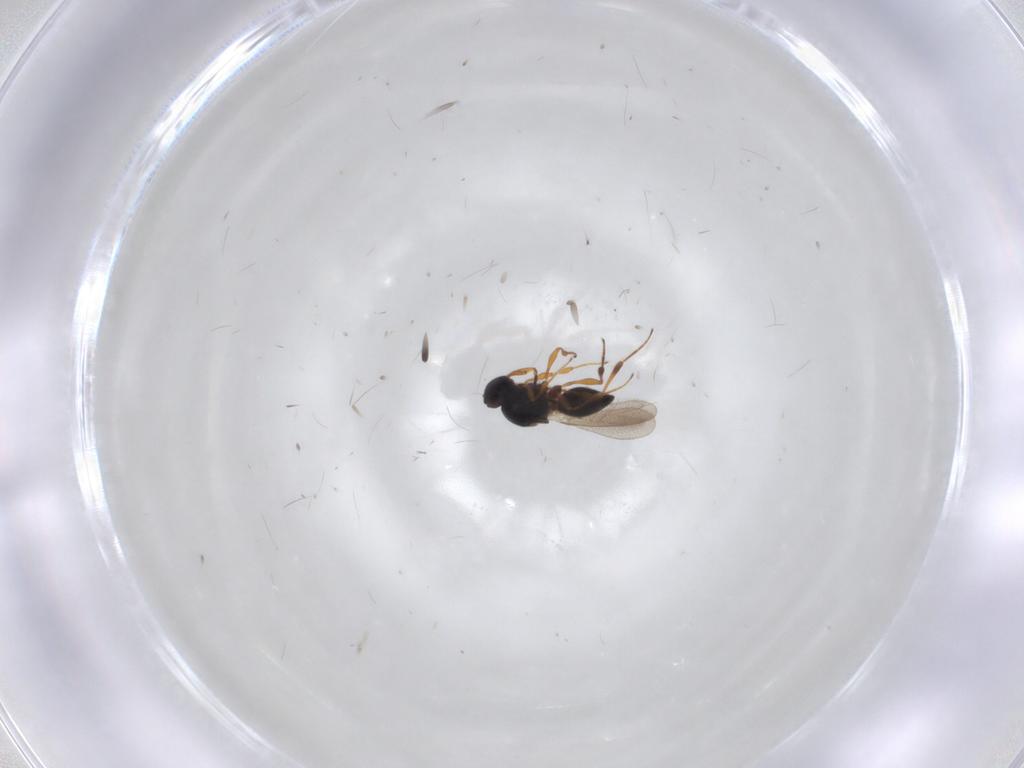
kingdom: Animalia
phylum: Arthropoda
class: Insecta
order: Hymenoptera
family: Platygastridae
